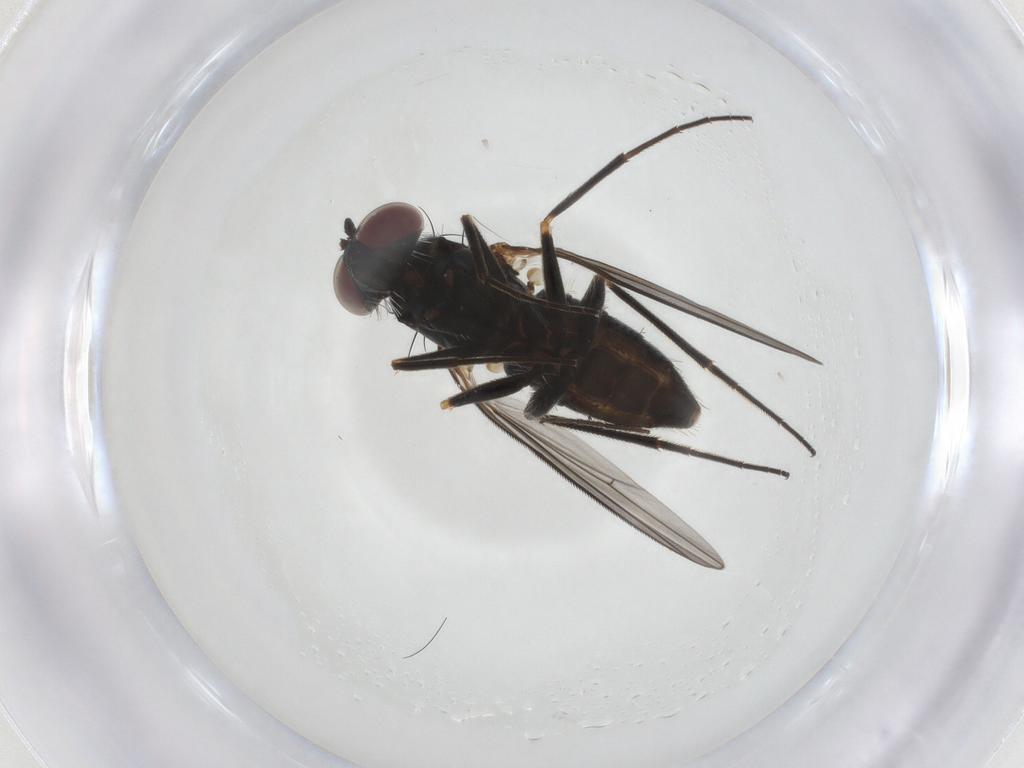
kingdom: Animalia
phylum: Arthropoda
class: Insecta
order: Diptera
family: Dolichopodidae
